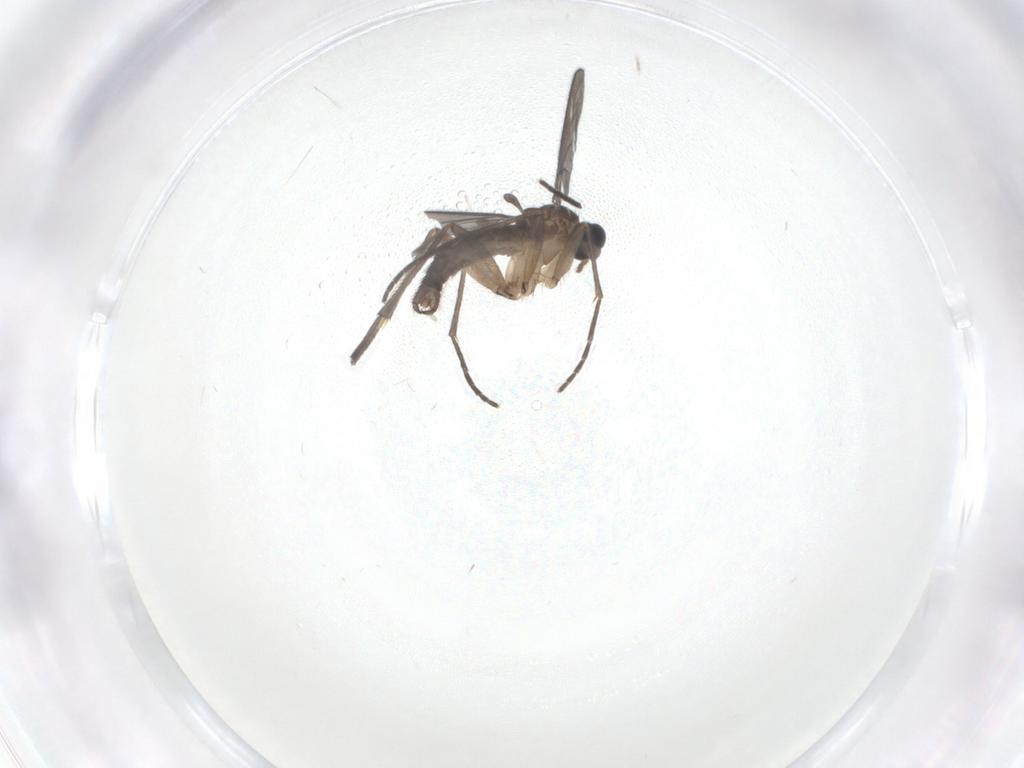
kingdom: Animalia
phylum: Arthropoda
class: Insecta
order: Diptera
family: Sciaridae
